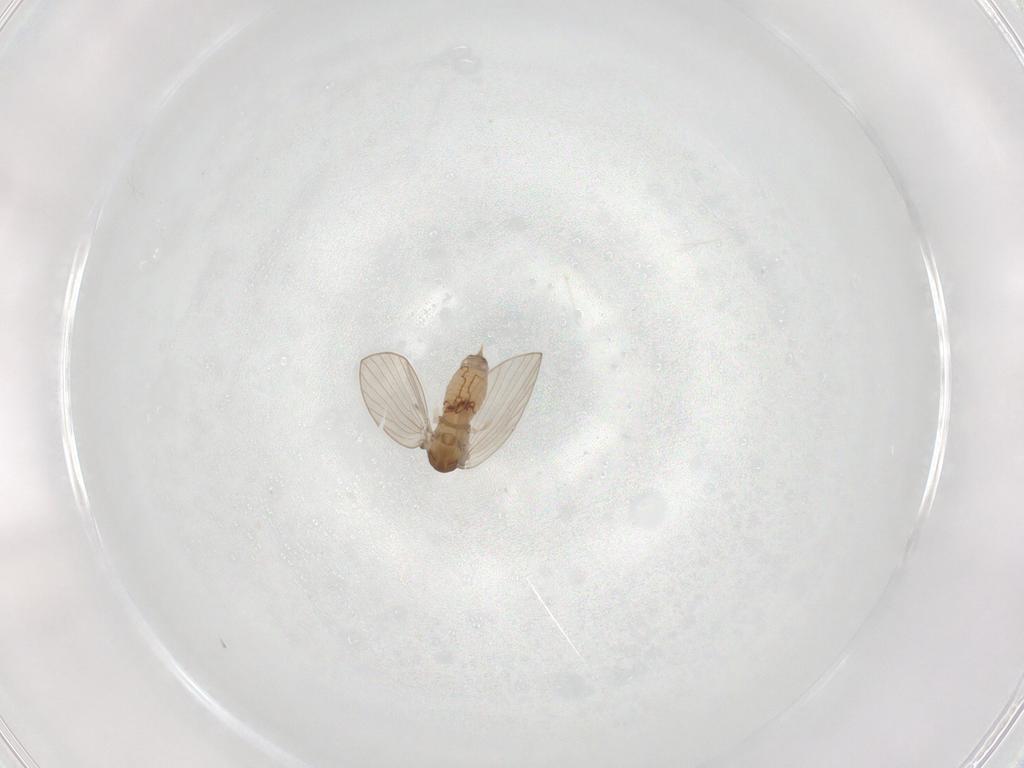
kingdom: Animalia
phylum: Arthropoda
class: Insecta
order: Diptera
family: Psychodidae
